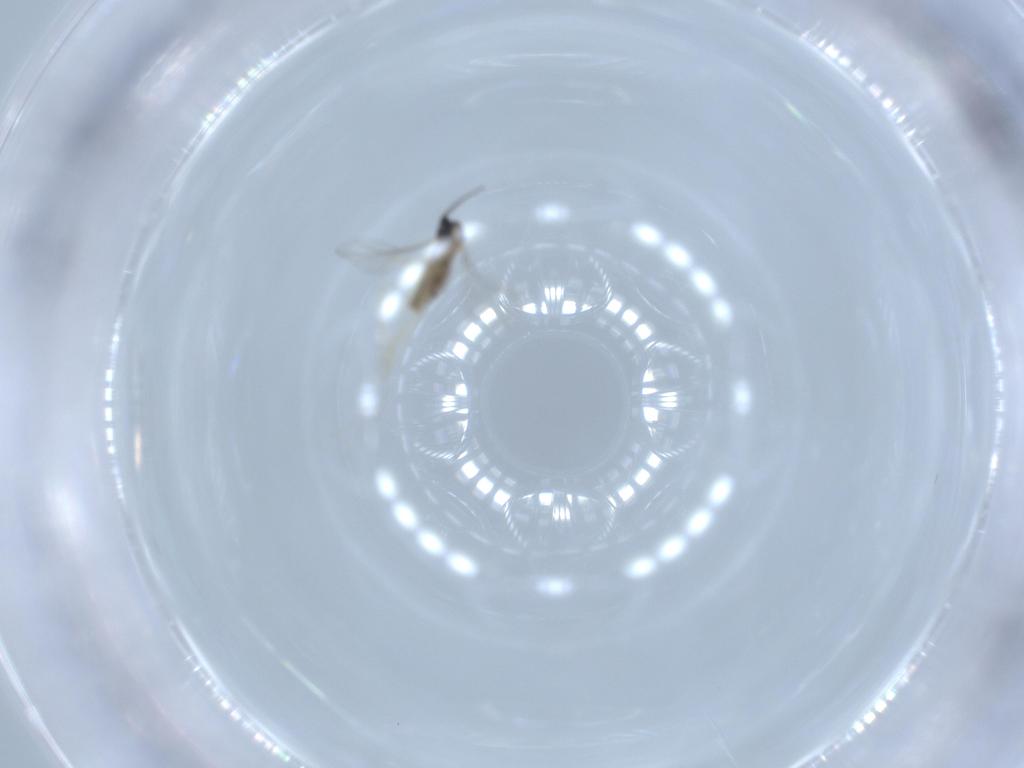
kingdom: Animalia
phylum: Arthropoda
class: Insecta
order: Diptera
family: Cecidomyiidae
